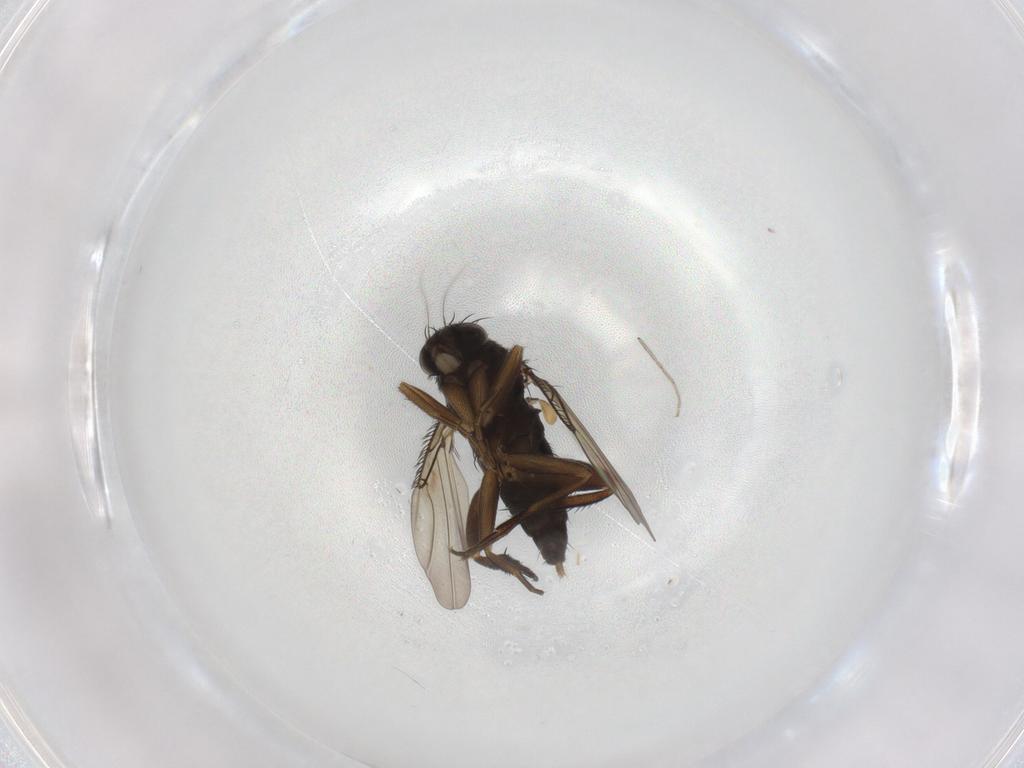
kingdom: Animalia
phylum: Arthropoda
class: Insecta
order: Diptera
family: Phoridae
